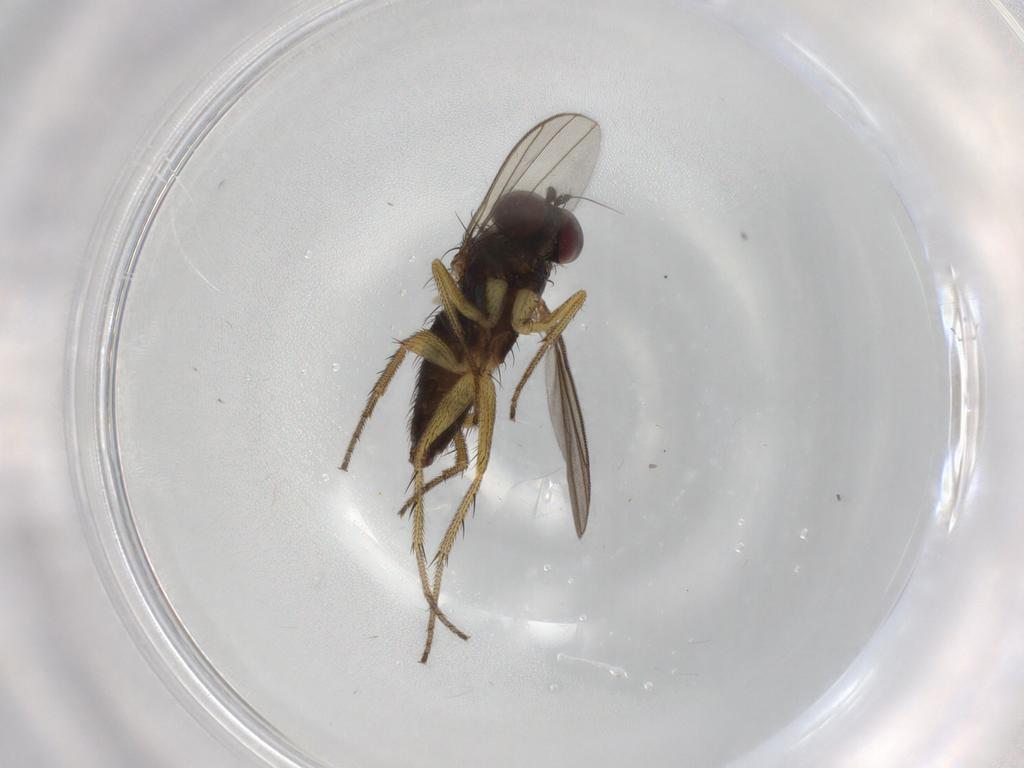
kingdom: Animalia
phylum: Arthropoda
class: Insecta
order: Diptera
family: Dolichopodidae
